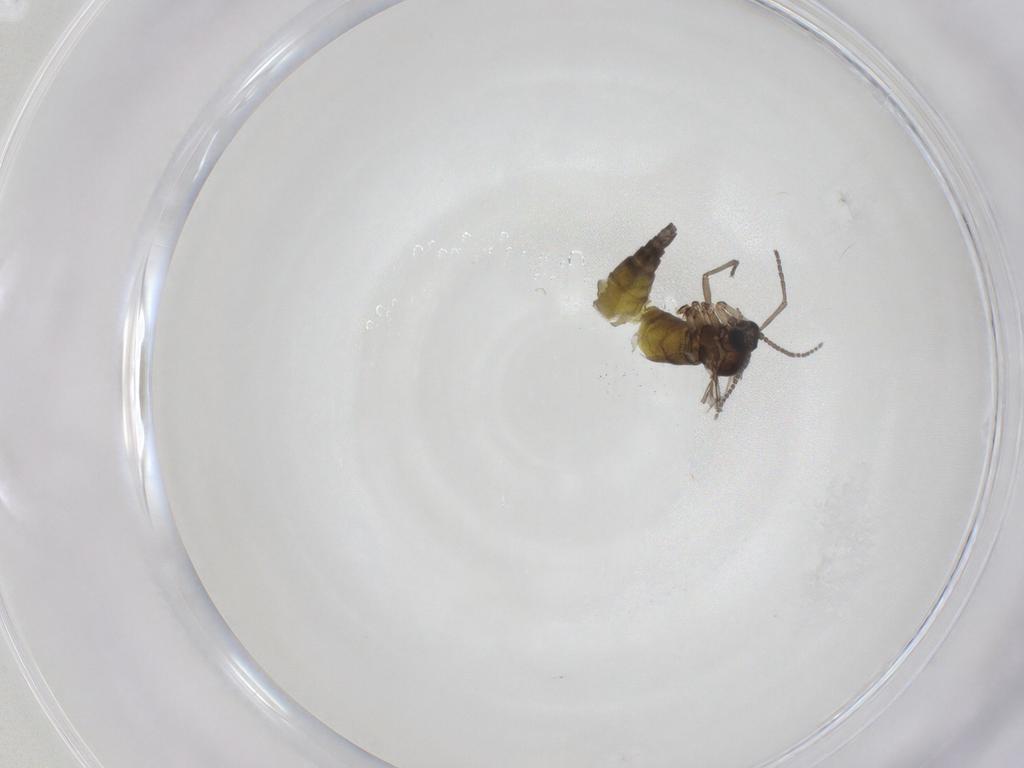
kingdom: Animalia
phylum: Arthropoda
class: Insecta
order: Diptera
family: Sciaridae
